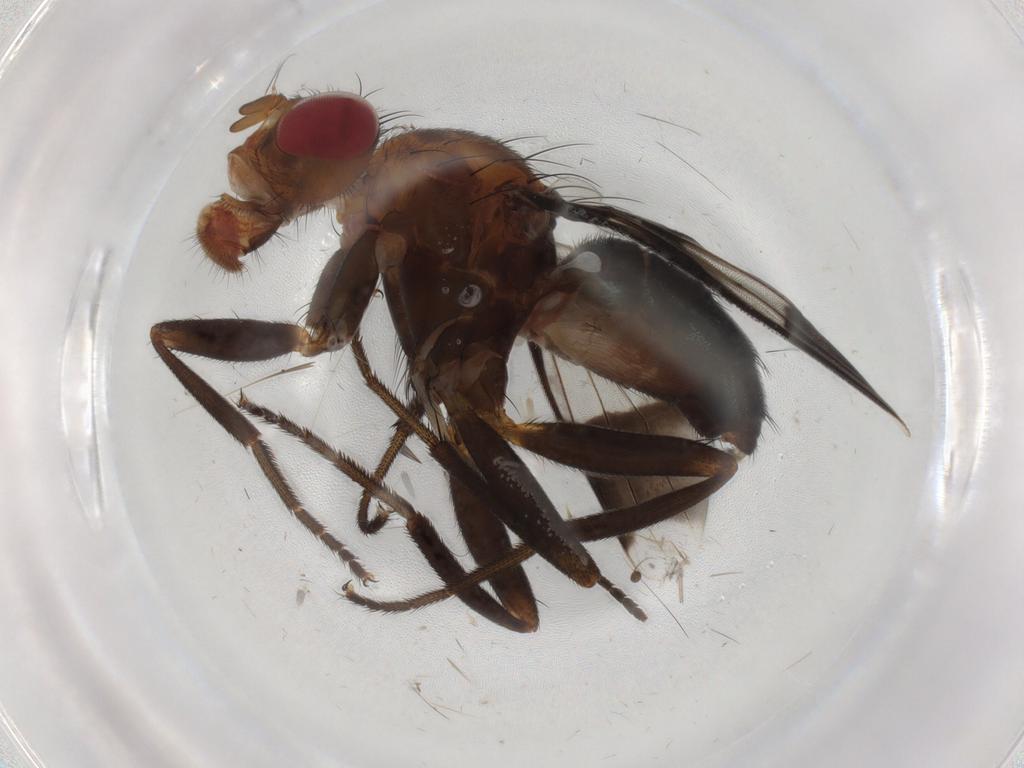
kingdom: Animalia
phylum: Arthropoda
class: Insecta
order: Diptera
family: Richardiidae
